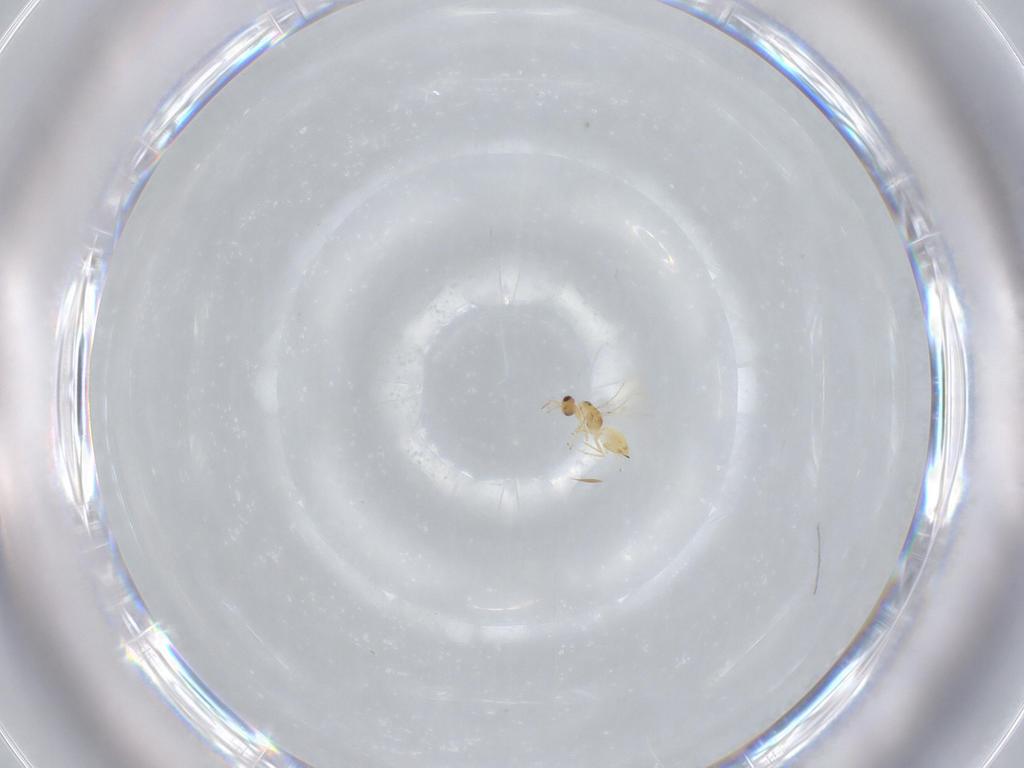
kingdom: Animalia
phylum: Arthropoda
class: Insecta
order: Hymenoptera
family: Mymaridae
